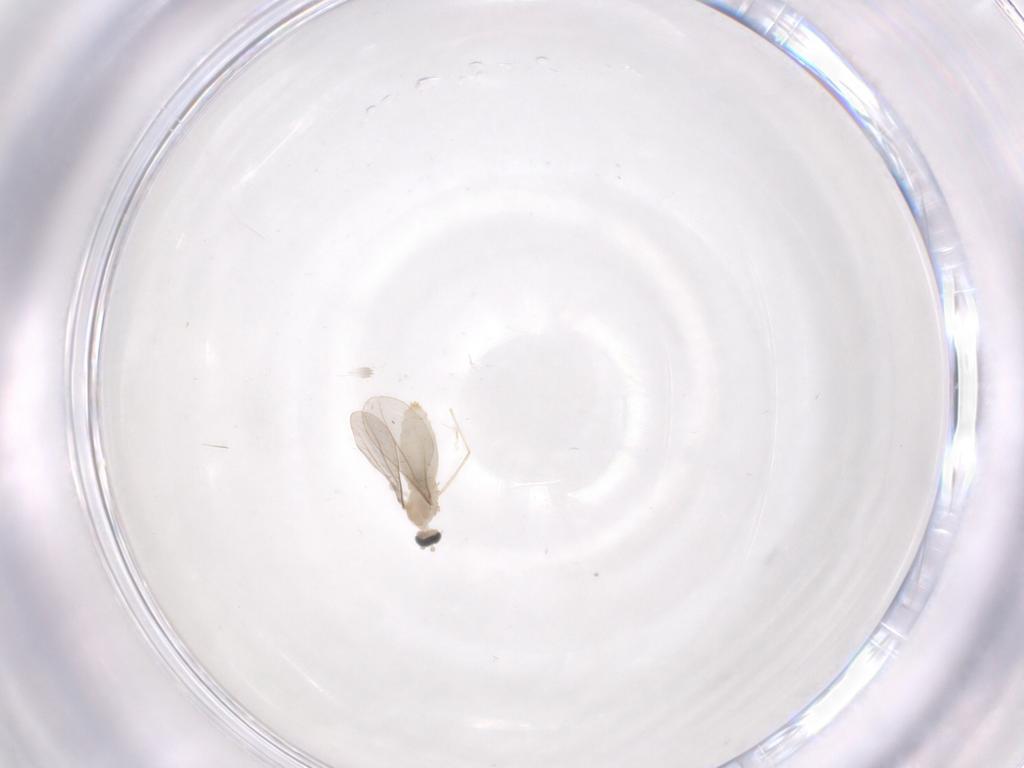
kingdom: Animalia
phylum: Arthropoda
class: Insecta
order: Diptera
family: Cecidomyiidae
